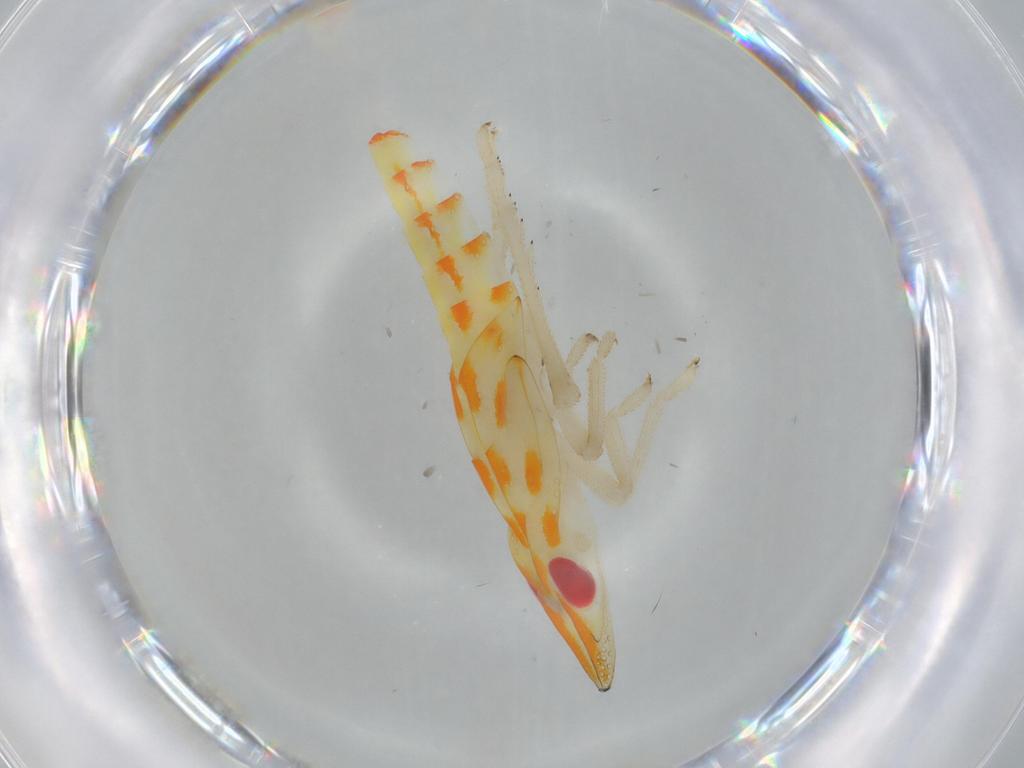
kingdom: Animalia
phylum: Arthropoda
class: Insecta
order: Hemiptera
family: Tropiduchidae
